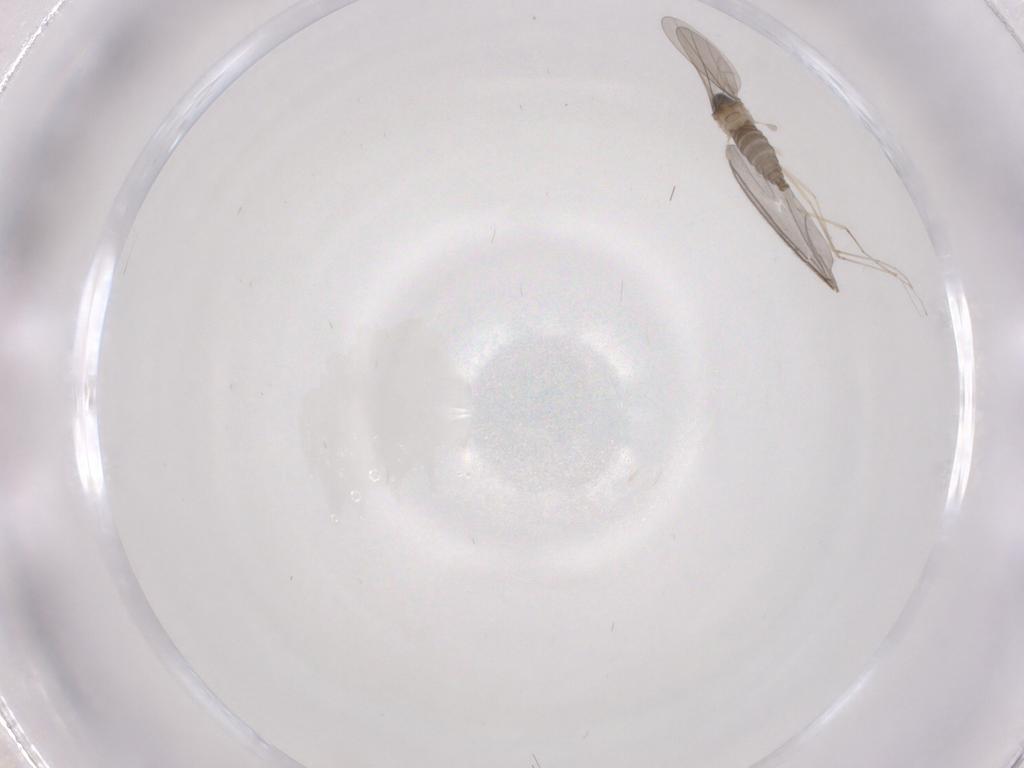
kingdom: Animalia
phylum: Arthropoda
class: Insecta
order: Diptera
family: Cecidomyiidae
